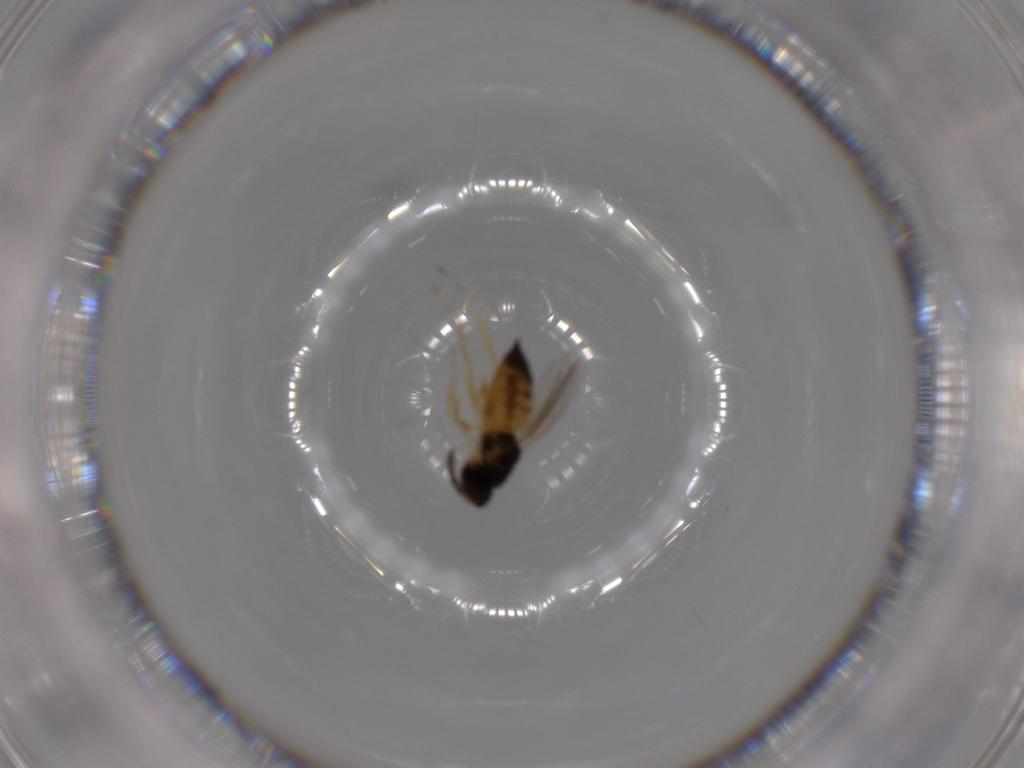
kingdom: Animalia
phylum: Arthropoda
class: Insecta
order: Hymenoptera
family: Eulophidae
